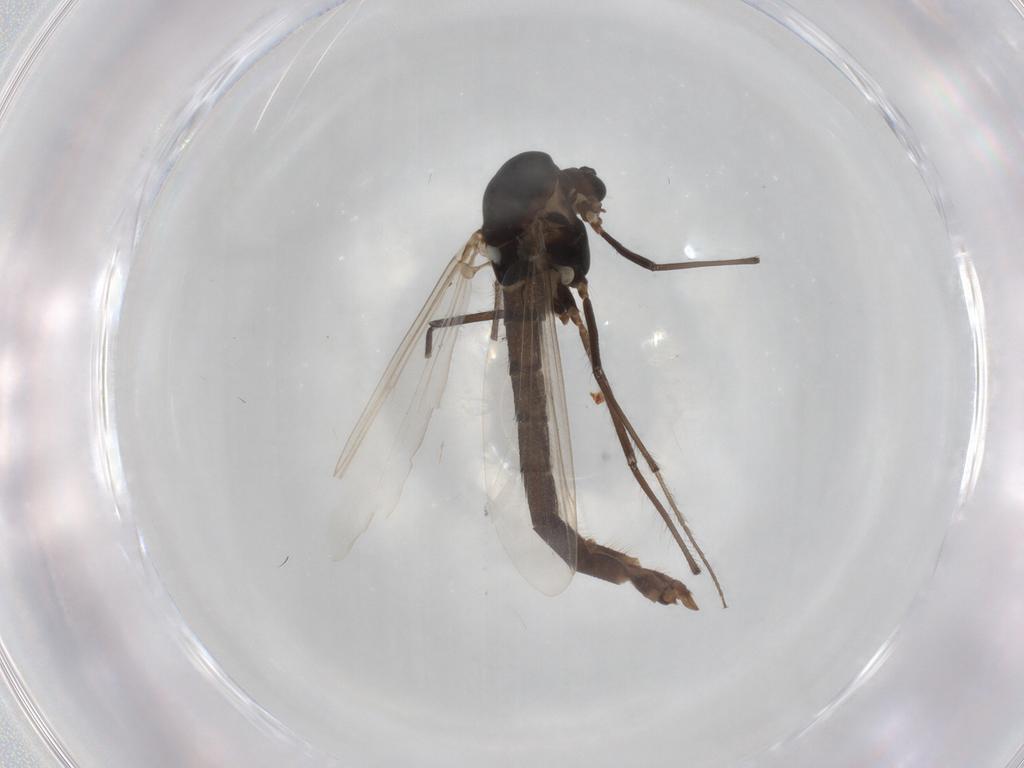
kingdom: Animalia
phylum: Arthropoda
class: Insecta
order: Diptera
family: Chironomidae
